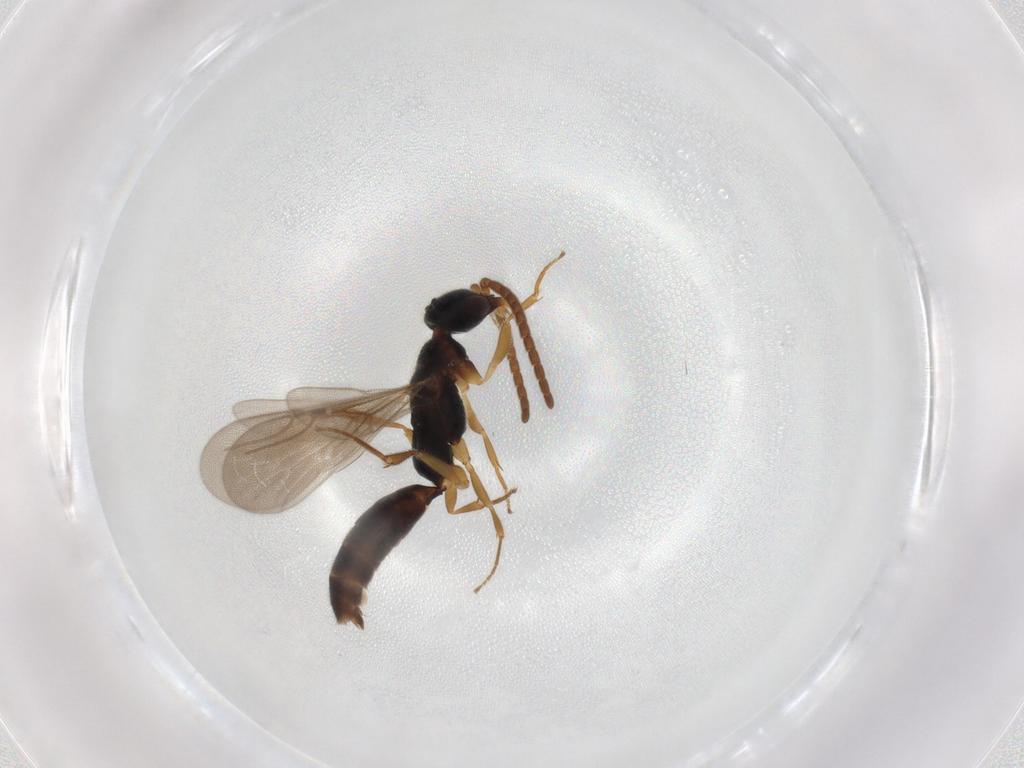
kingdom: Animalia
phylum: Arthropoda
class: Insecta
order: Hymenoptera
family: Bethylidae
